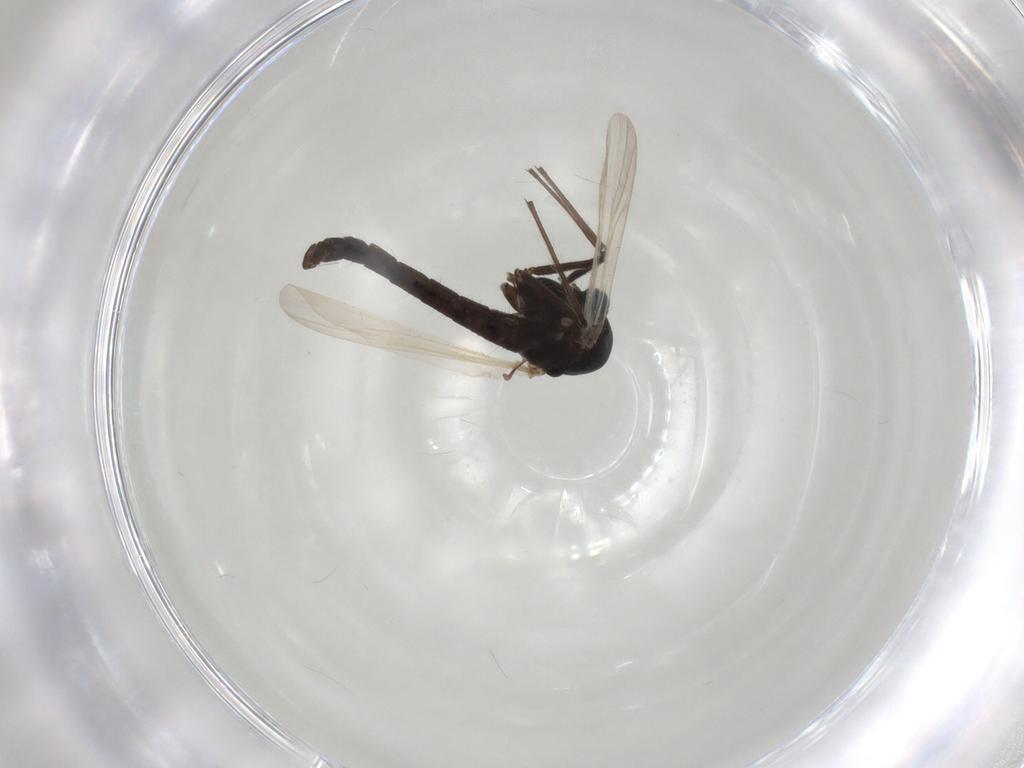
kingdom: Animalia
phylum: Arthropoda
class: Insecta
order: Diptera
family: Chironomidae
